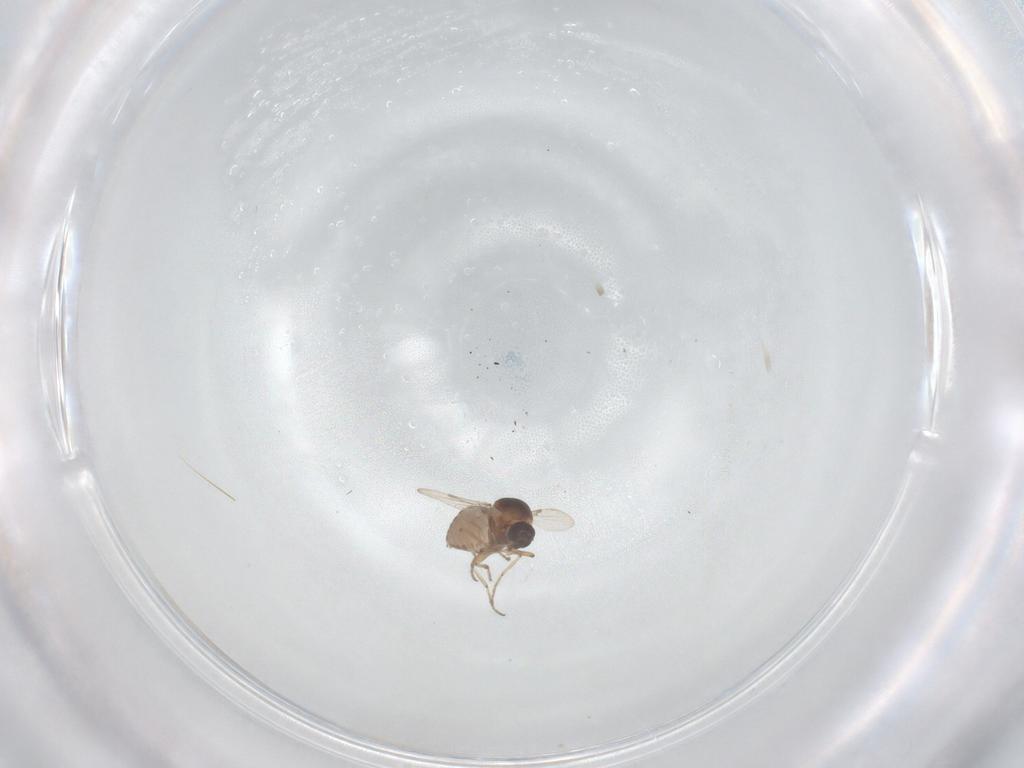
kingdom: Animalia
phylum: Arthropoda
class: Insecta
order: Diptera
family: Ceratopogonidae
